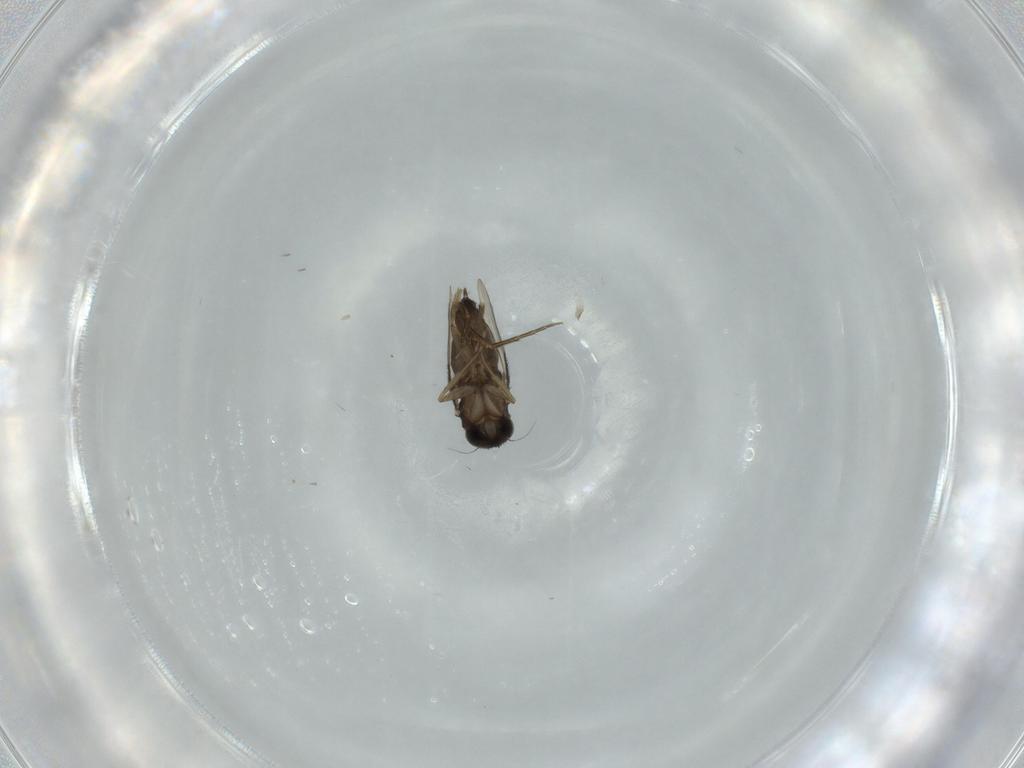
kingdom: Animalia
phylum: Arthropoda
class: Insecta
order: Diptera
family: Phoridae
